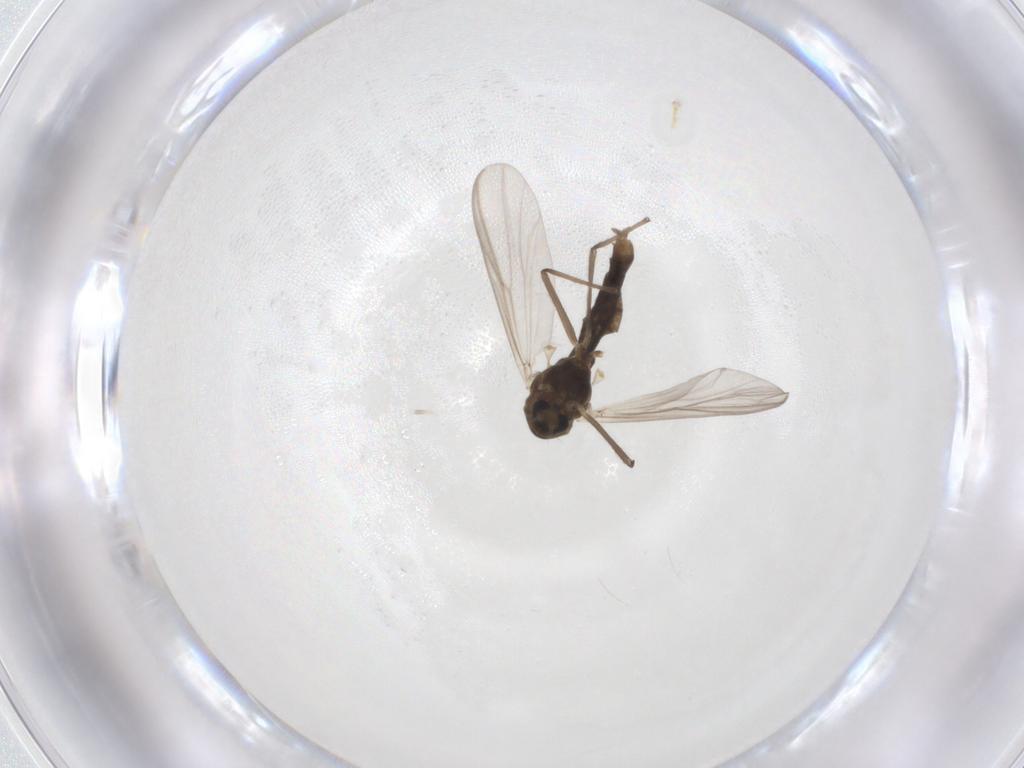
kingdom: Animalia
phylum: Arthropoda
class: Insecta
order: Diptera
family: Chironomidae
